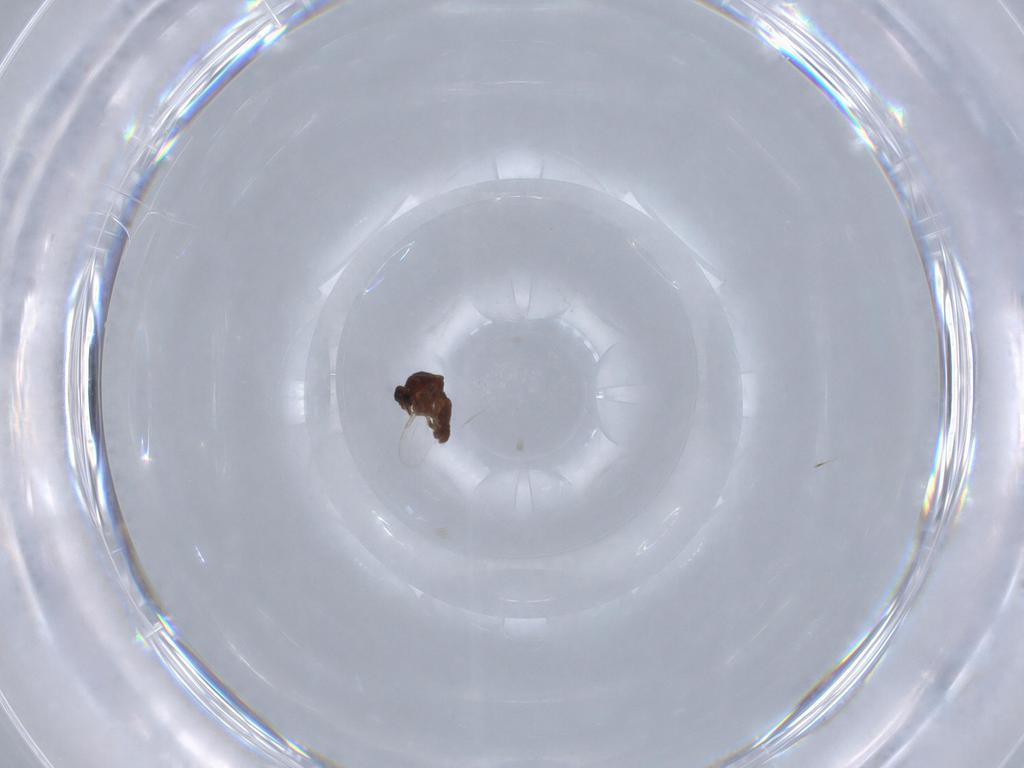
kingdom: Animalia
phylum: Arthropoda
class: Insecta
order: Diptera
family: Ceratopogonidae
